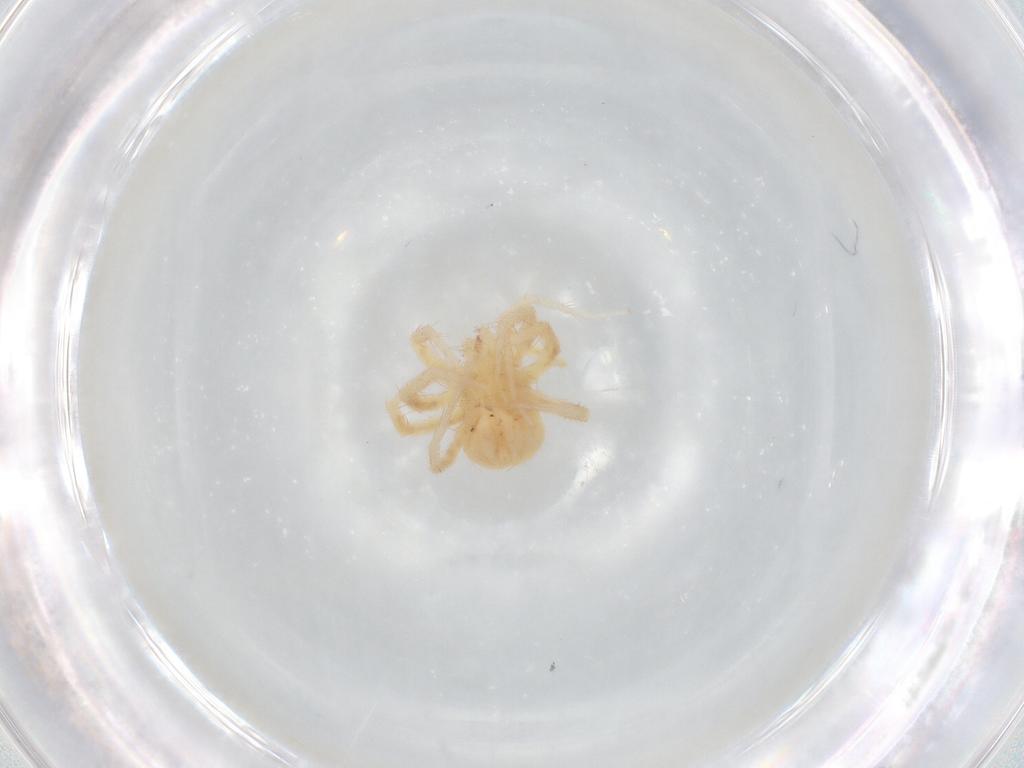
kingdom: Animalia
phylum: Arthropoda
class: Arachnida
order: Trombidiformes
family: Anystidae
